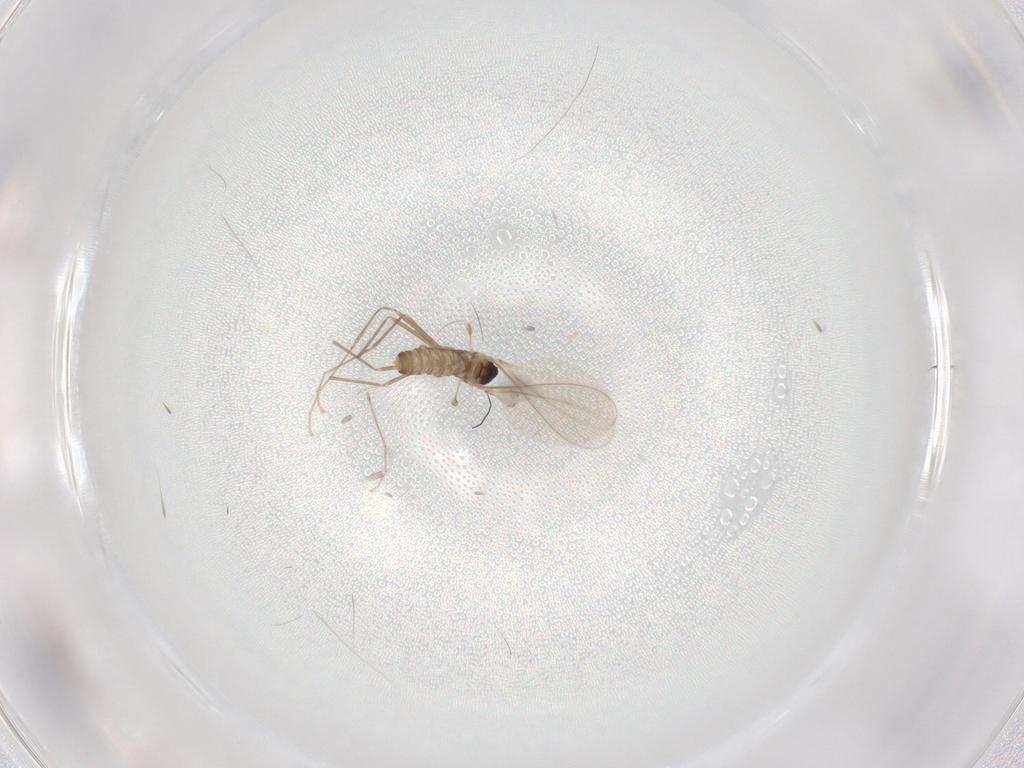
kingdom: Animalia
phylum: Arthropoda
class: Insecta
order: Diptera
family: Cecidomyiidae
